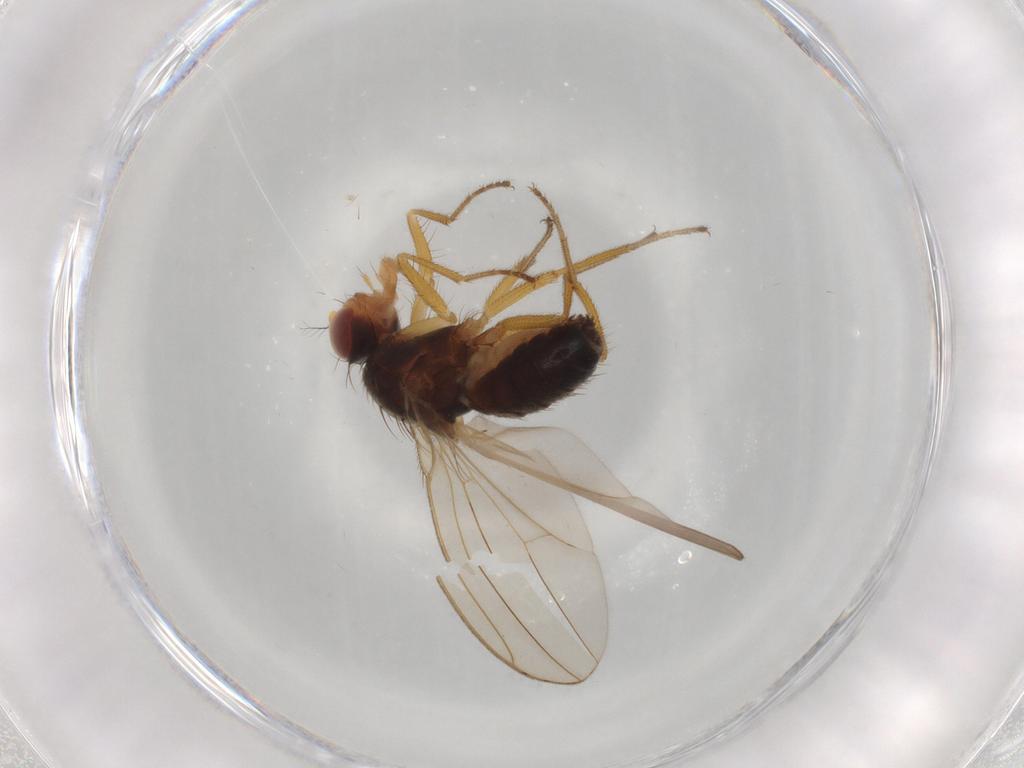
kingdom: Animalia
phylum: Arthropoda
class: Insecta
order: Diptera
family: Drosophilidae
